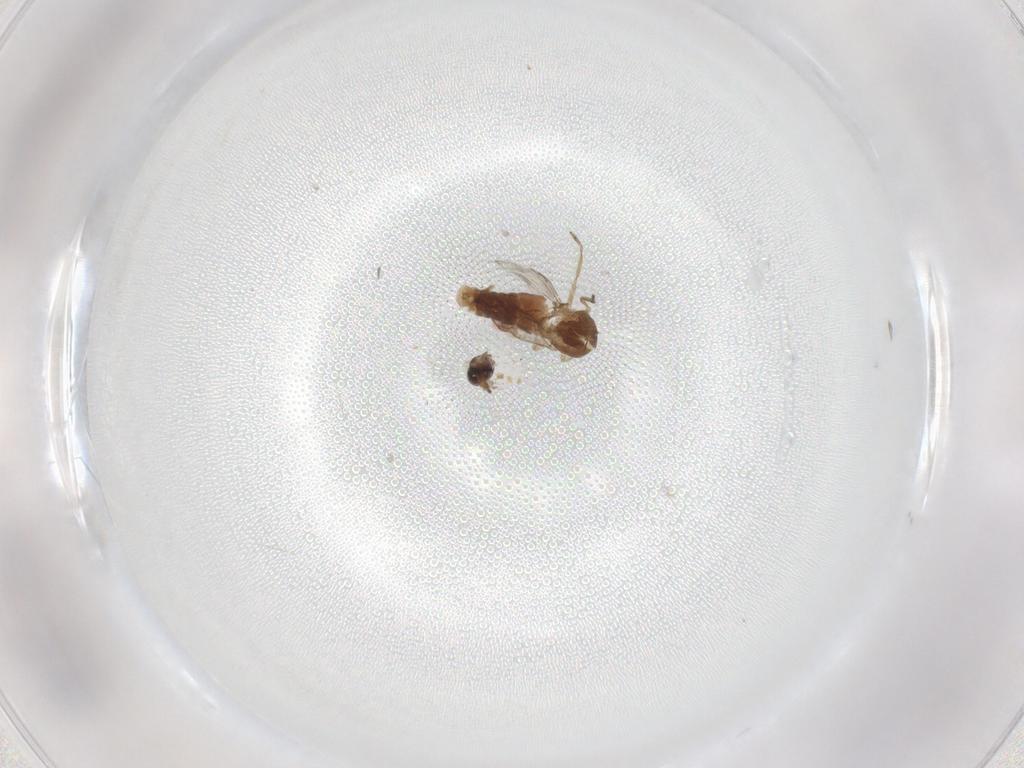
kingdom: Animalia
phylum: Arthropoda
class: Insecta
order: Diptera
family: Ceratopogonidae
